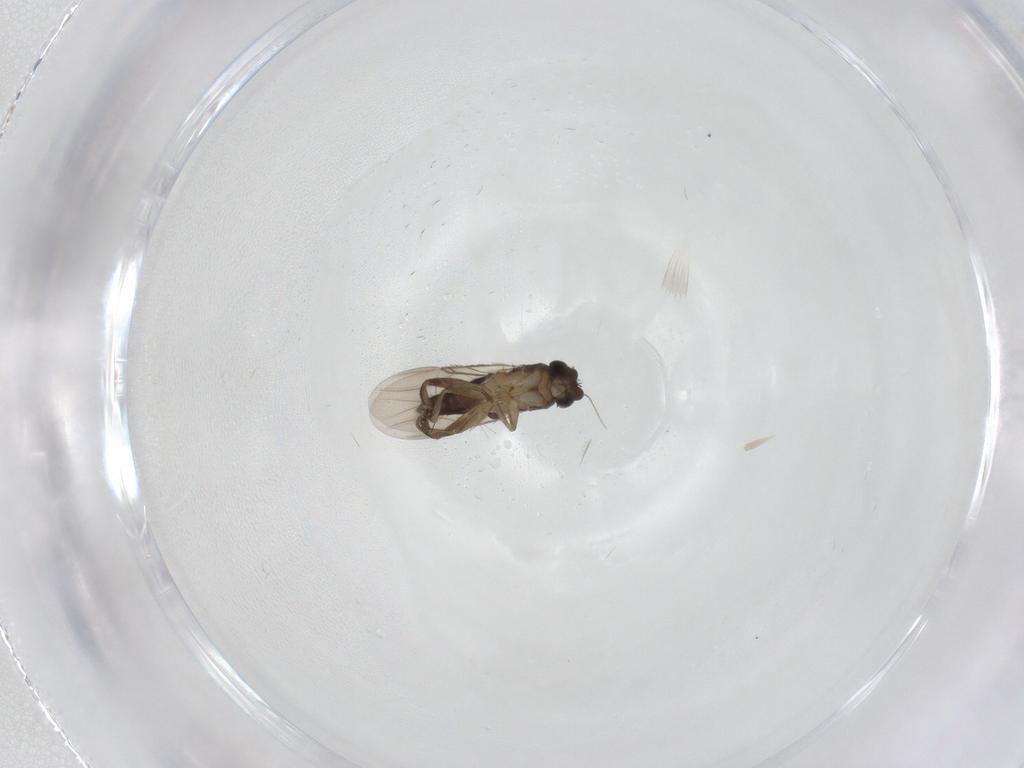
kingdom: Animalia
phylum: Arthropoda
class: Insecta
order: Diptera
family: Phoridae
